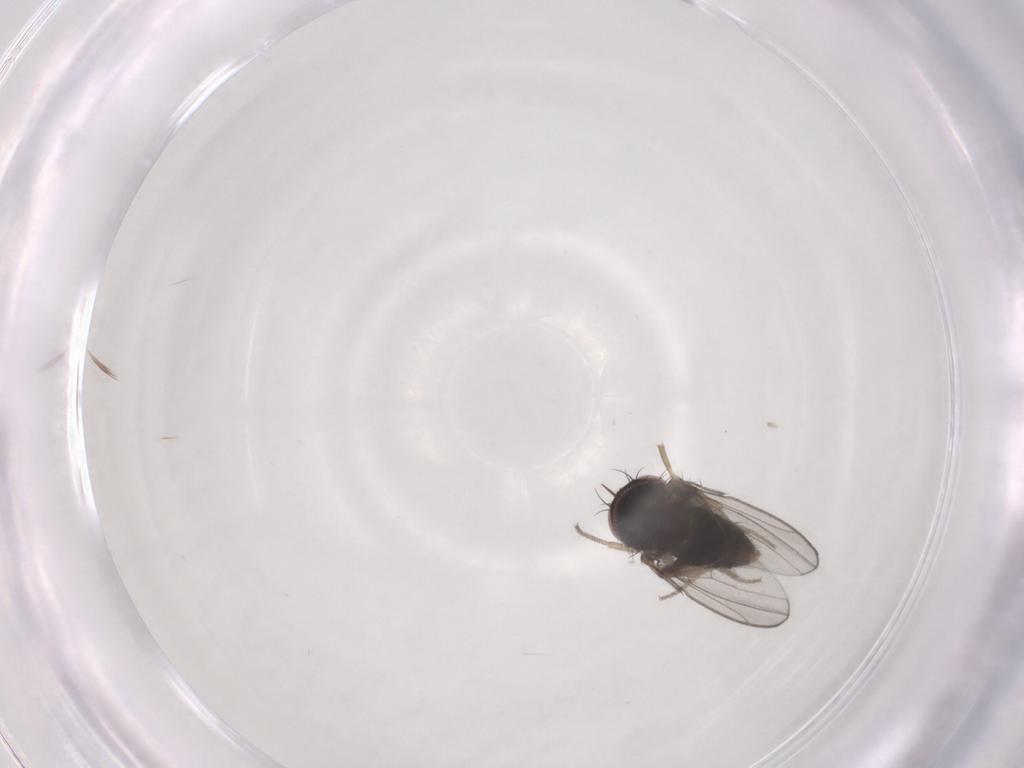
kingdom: Animalia
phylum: Arthropoda
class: Insecta
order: Diptera
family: Drosophilidae
